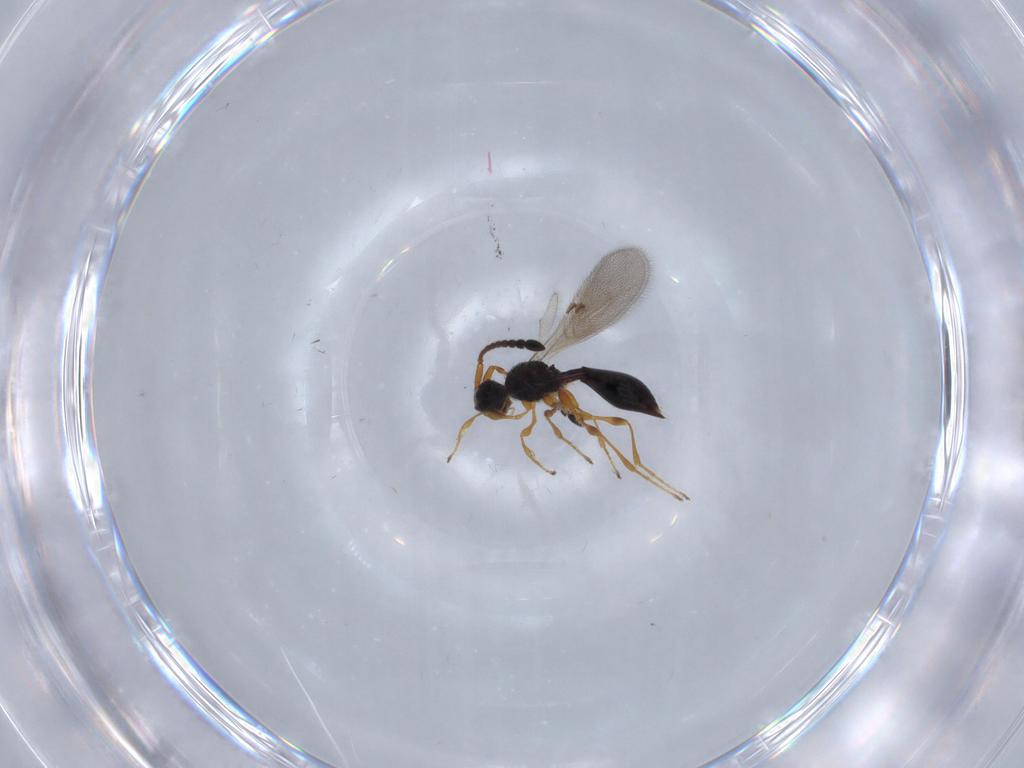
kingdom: Animalia
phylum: Arthropoda
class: Insecta
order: Hymenoptera
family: Diapriidae
